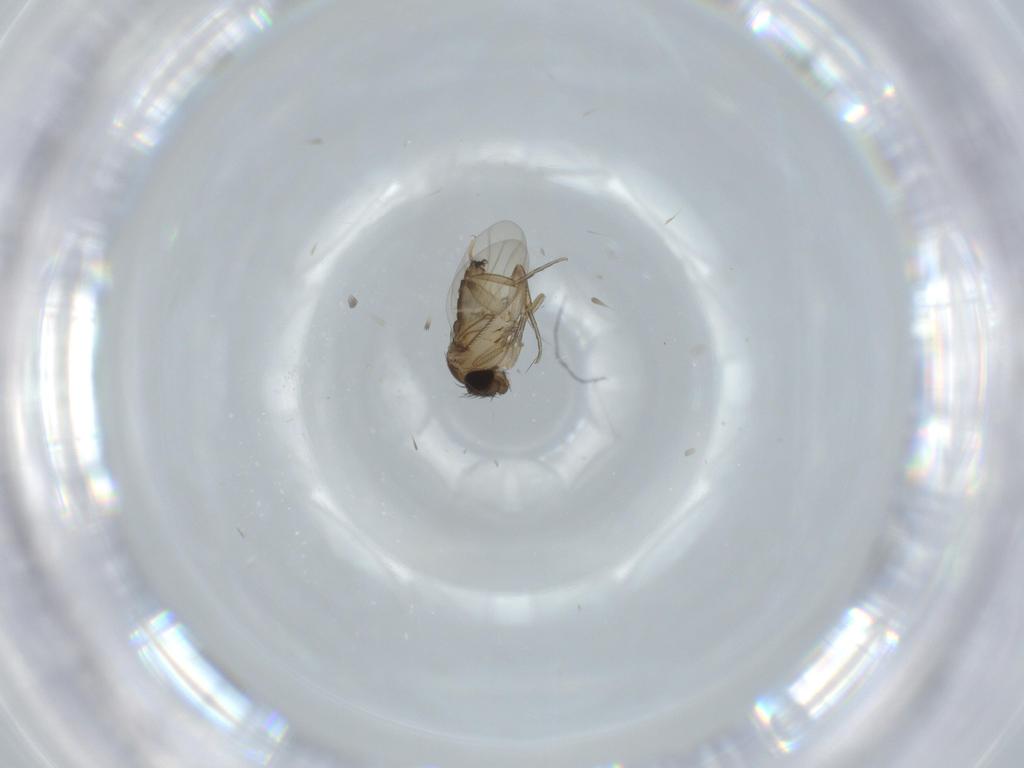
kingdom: Animalia
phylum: Arthropoda
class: Insecta
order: Diptera
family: Phoridae
